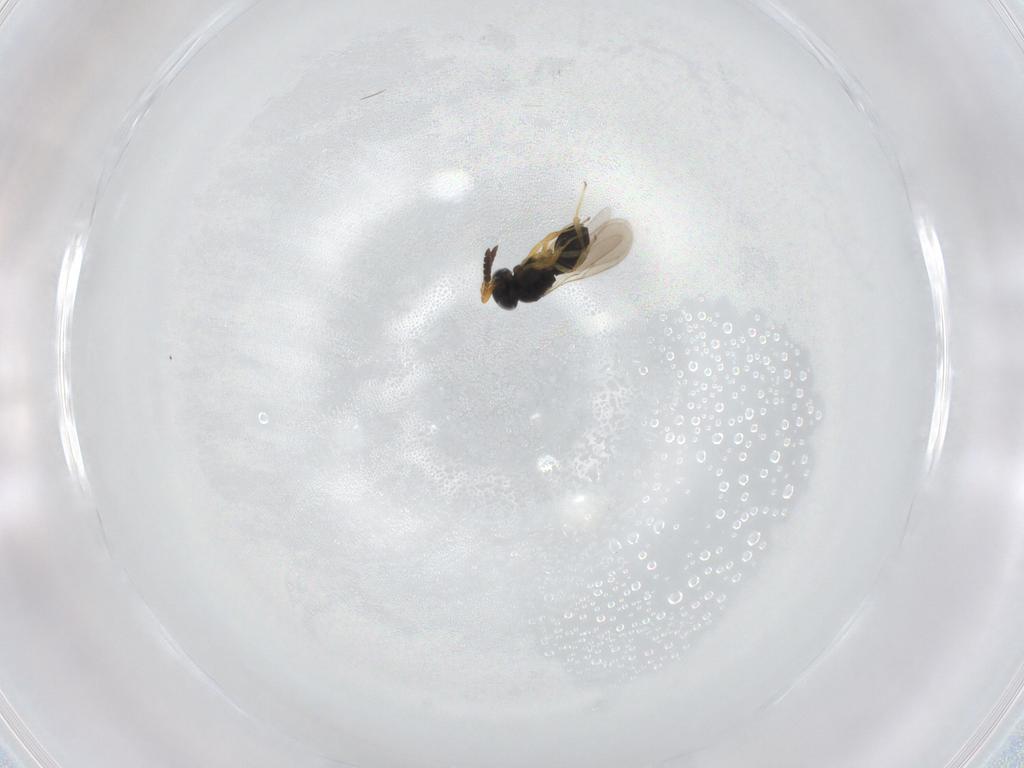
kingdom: Animalia
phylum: Arthropoda
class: Insecta
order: Hymenoptera
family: Scelionidae
